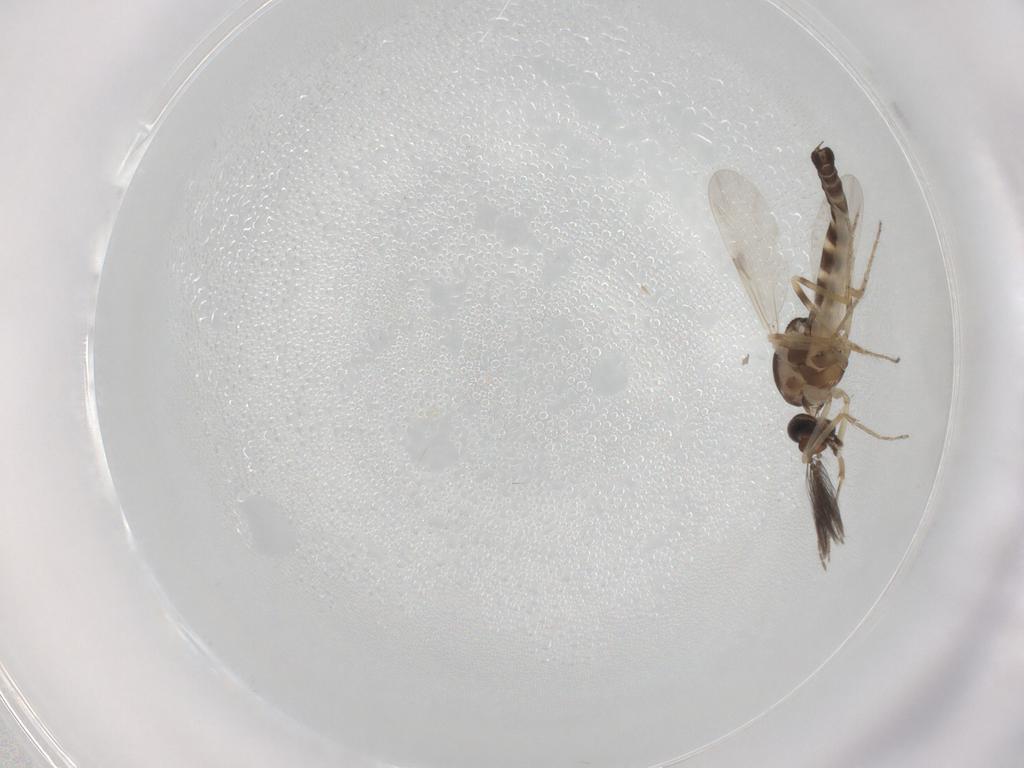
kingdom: Animalia
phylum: Arthropoda
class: Insecta
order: Diptera
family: Ceratopogonidae
